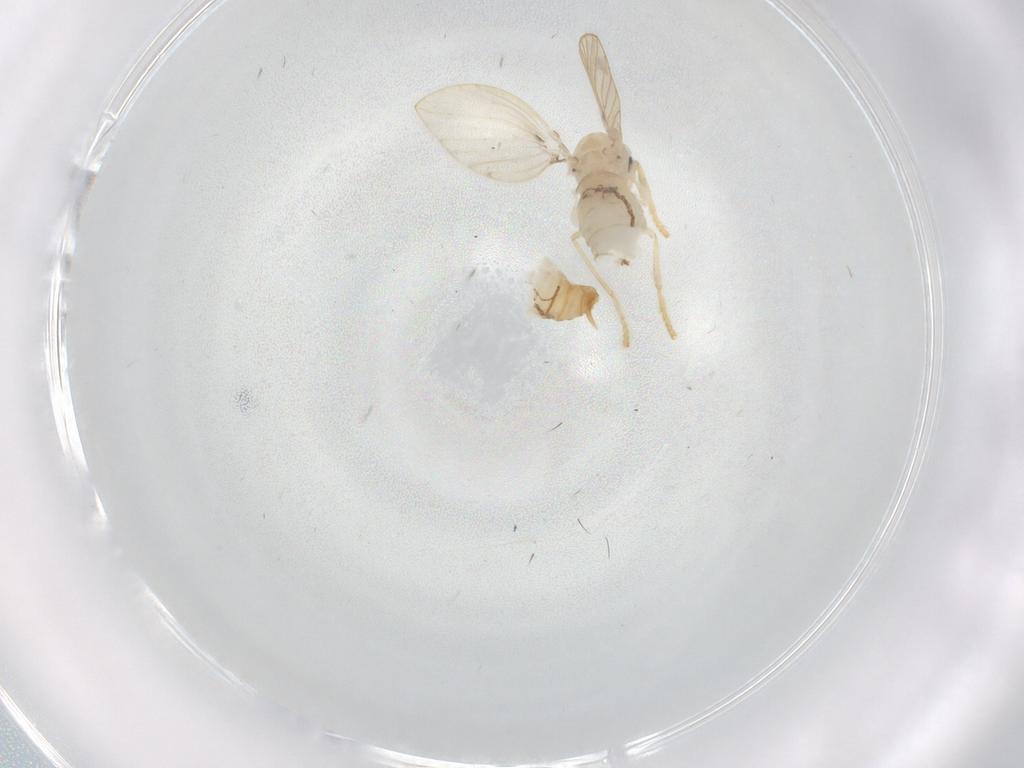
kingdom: Animalia
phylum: Arthropoda
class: Insecta
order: Diptera
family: Psychodidae
